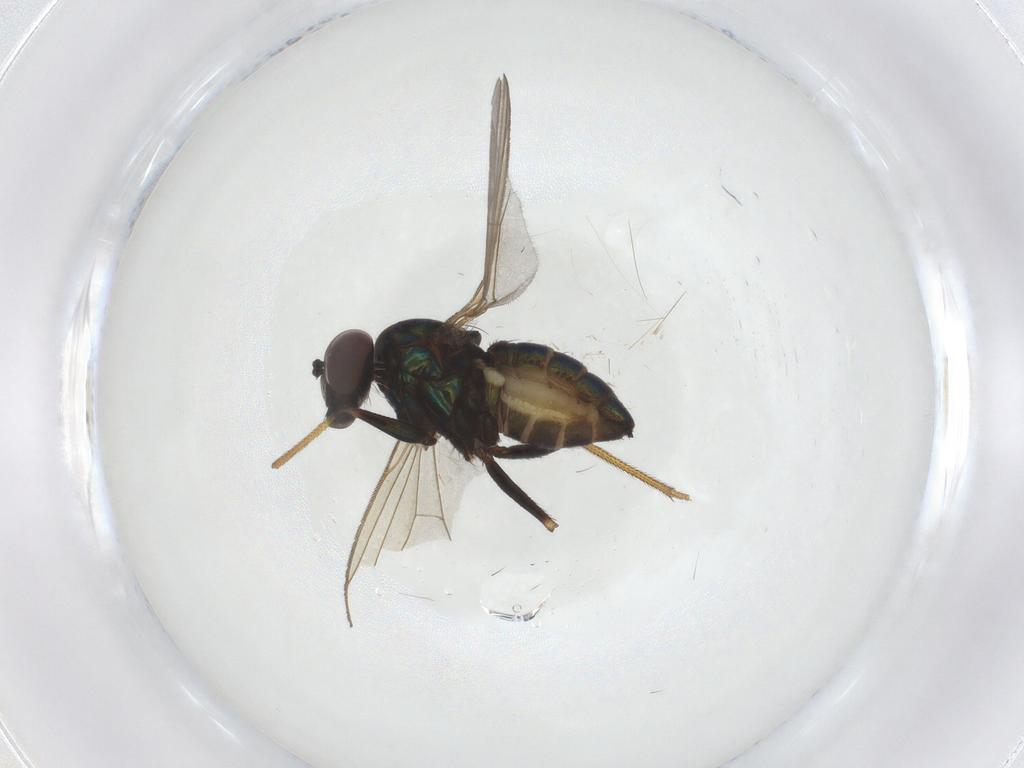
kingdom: Animalia
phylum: Arthropoda
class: Insecta
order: Diptera
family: Dolichopodidae
